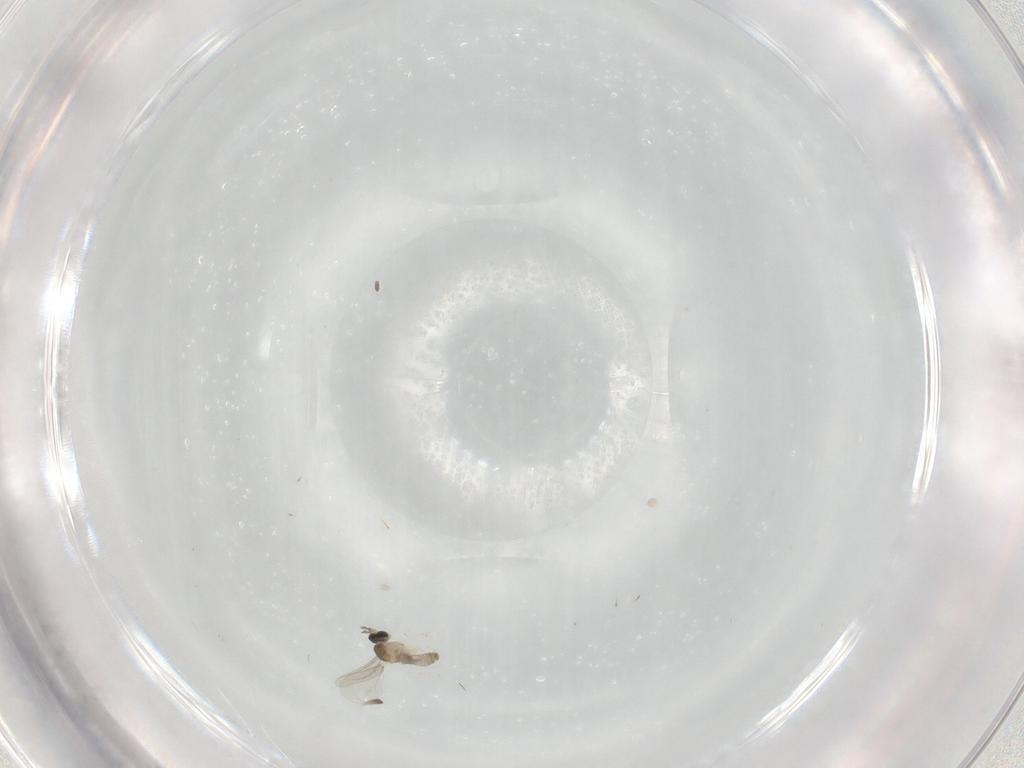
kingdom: Animalia
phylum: Arthropoda
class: Insecta
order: Diptera
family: Cecidomyiidae
